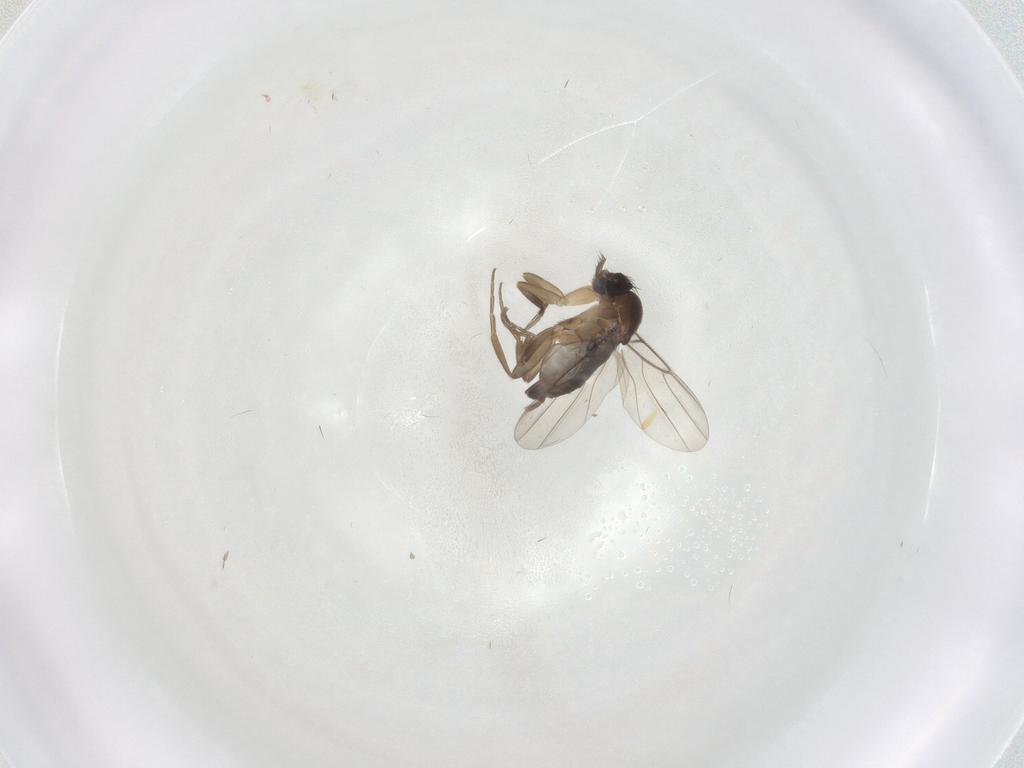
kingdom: Animalia
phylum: Arthropoda
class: Insecta
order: Diptera
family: Phoridae
